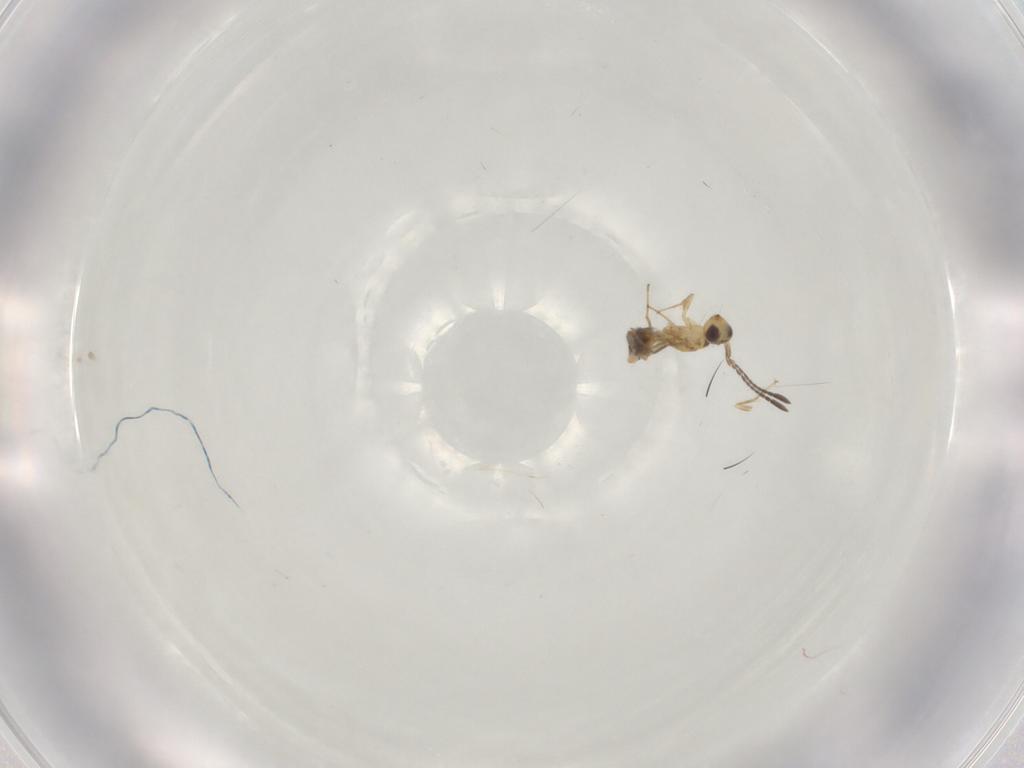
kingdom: Animalia
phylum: Arthropoda
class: Insecta
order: Hymenoptera
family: Trichogrammatidae
